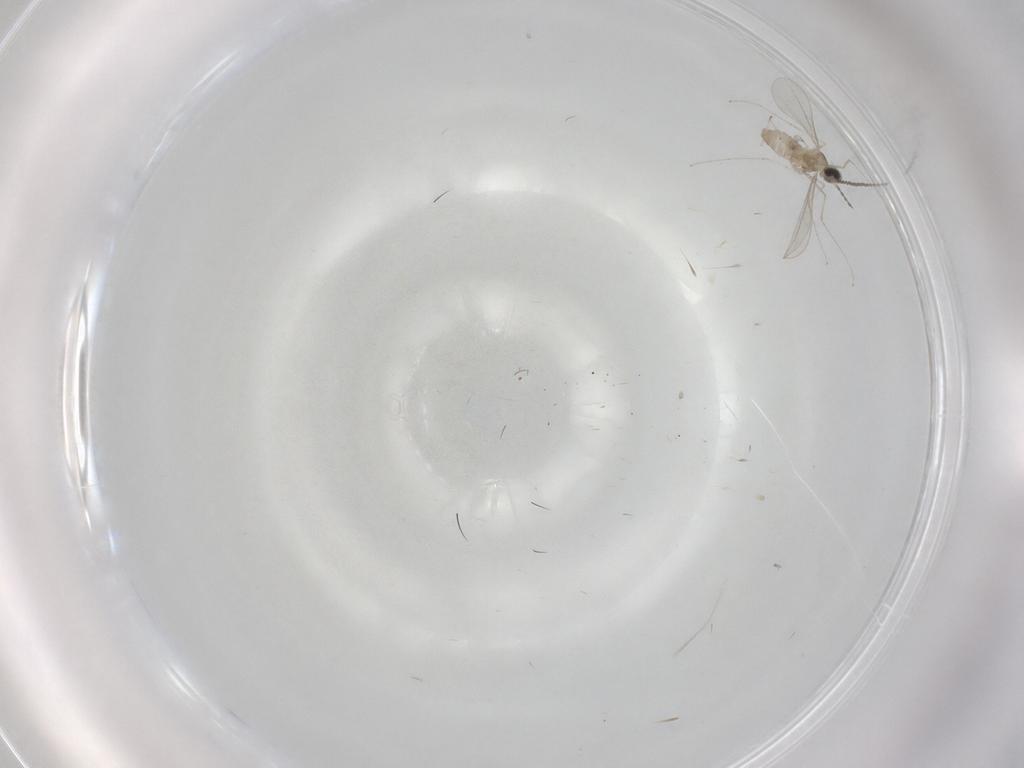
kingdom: Animalia
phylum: Arthropoda
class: Insecta
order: Diptera
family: Cecidomyiidae
